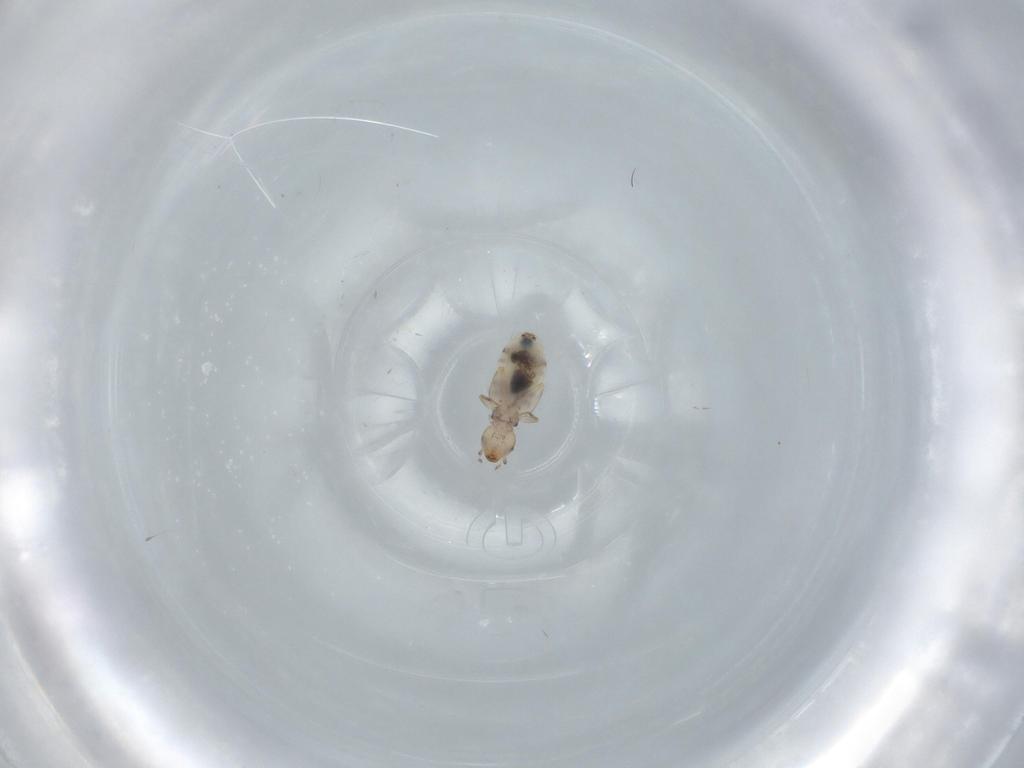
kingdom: Animalia
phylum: Arthropoda
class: Insecta
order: Psocodea
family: Liposcelididae
